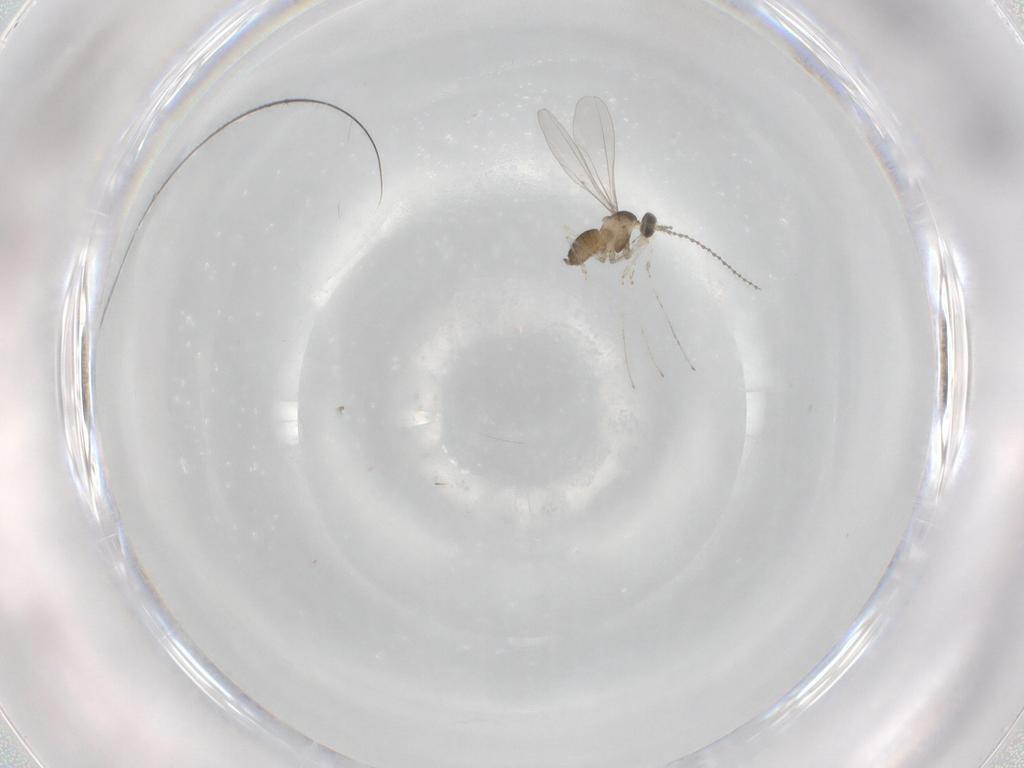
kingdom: Animalia
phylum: Arthropoda
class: Insecta
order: Diptera
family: Cecidomyiidae
